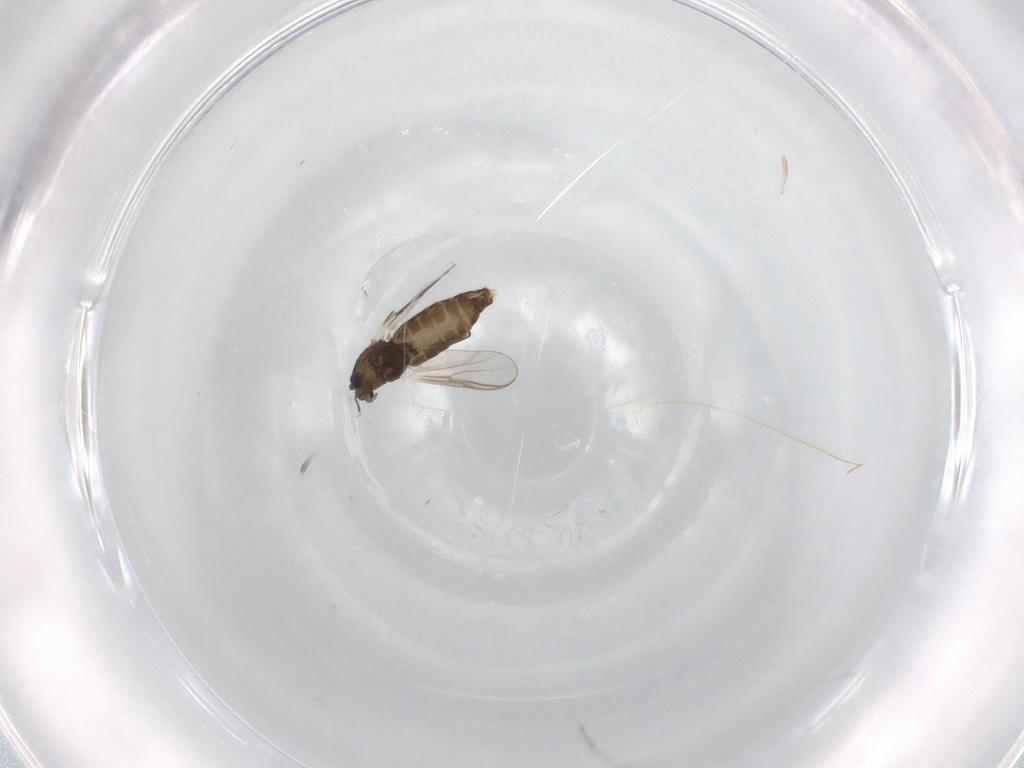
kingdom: Animalia
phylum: Arthropoda
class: Insecta
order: Diptera
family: Chironomidae
